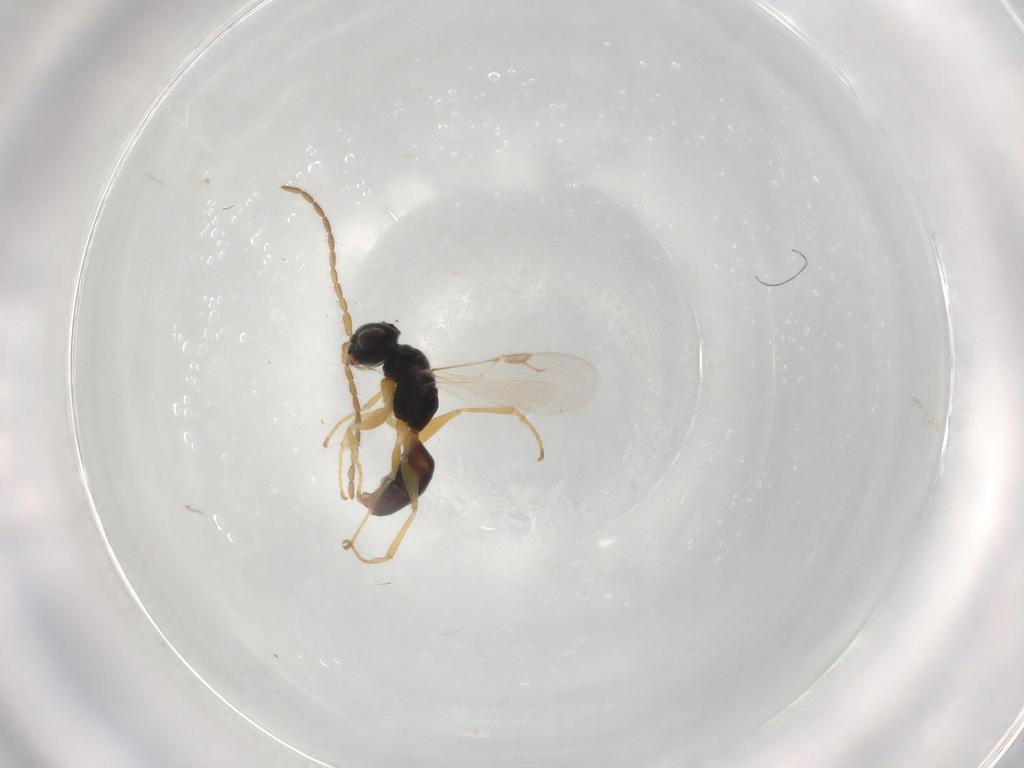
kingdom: Animalia
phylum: Arthropoda
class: Insecta
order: Hymenoptera
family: Dryinidae
